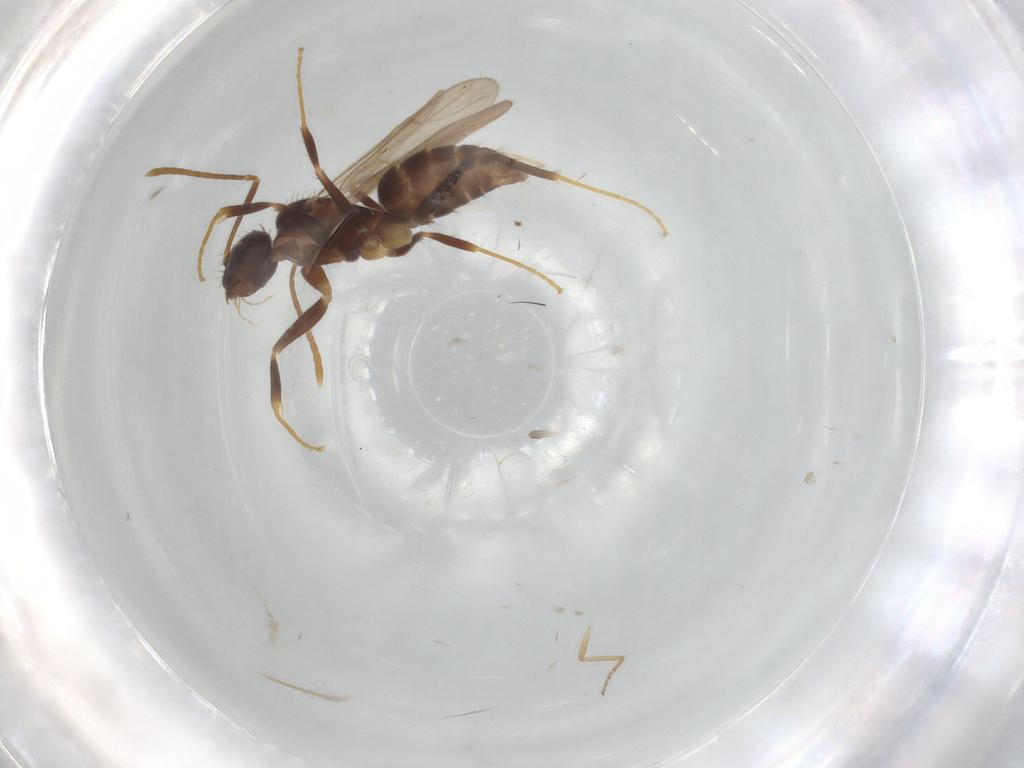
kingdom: Animalia
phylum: Arthropoda
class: Insecta
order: Hymenoptera
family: Formicidae
